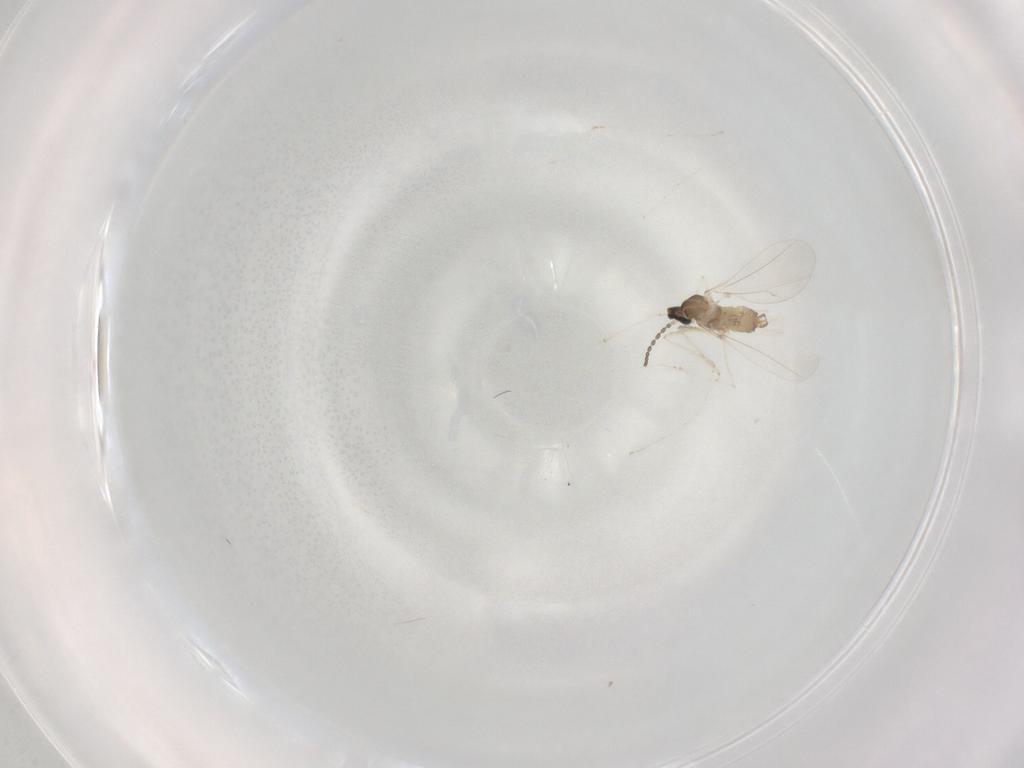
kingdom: Animalia
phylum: Arthropoda
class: Insecta
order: Diptera
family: Cecidomyiidae
